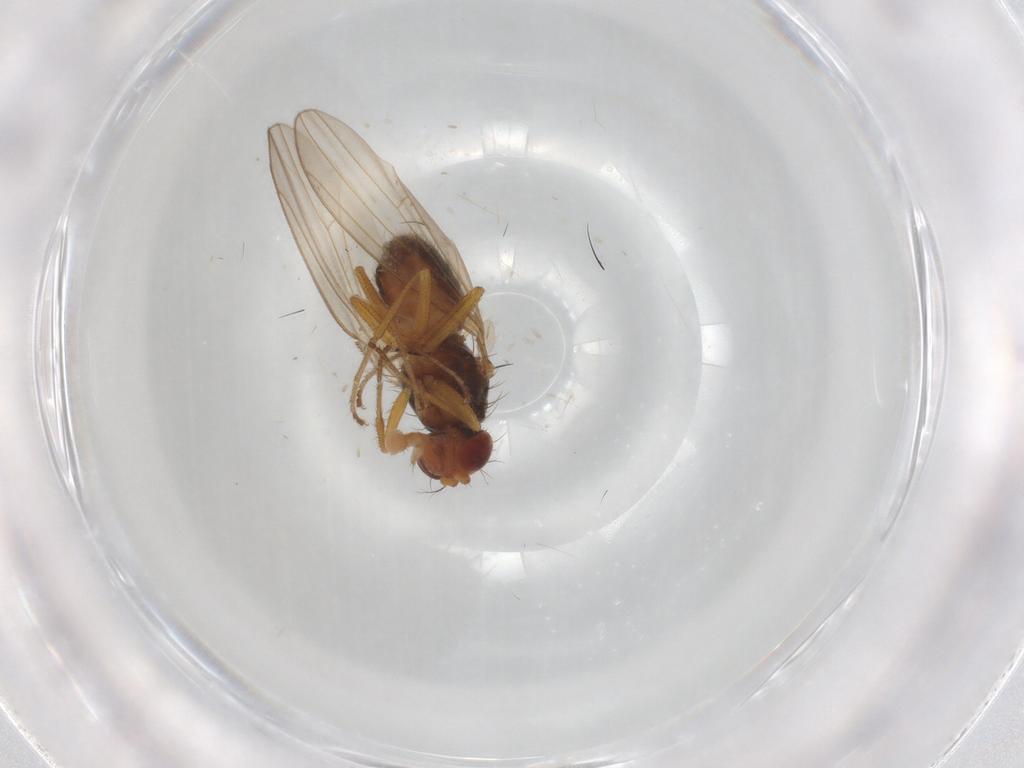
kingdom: Animalia
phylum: Arthropoda
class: Insecta
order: Diptera
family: Drosophilidae
